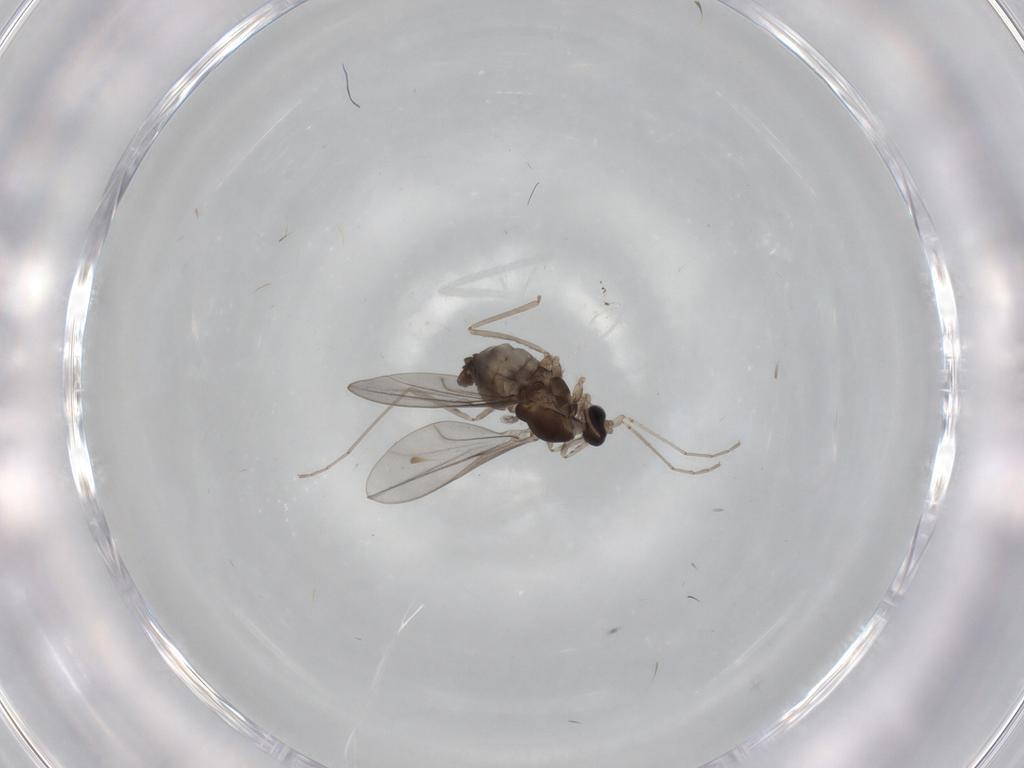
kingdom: Animalia
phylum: Arthropoda
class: Insecta
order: Diptera
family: Cecidomyiidae
